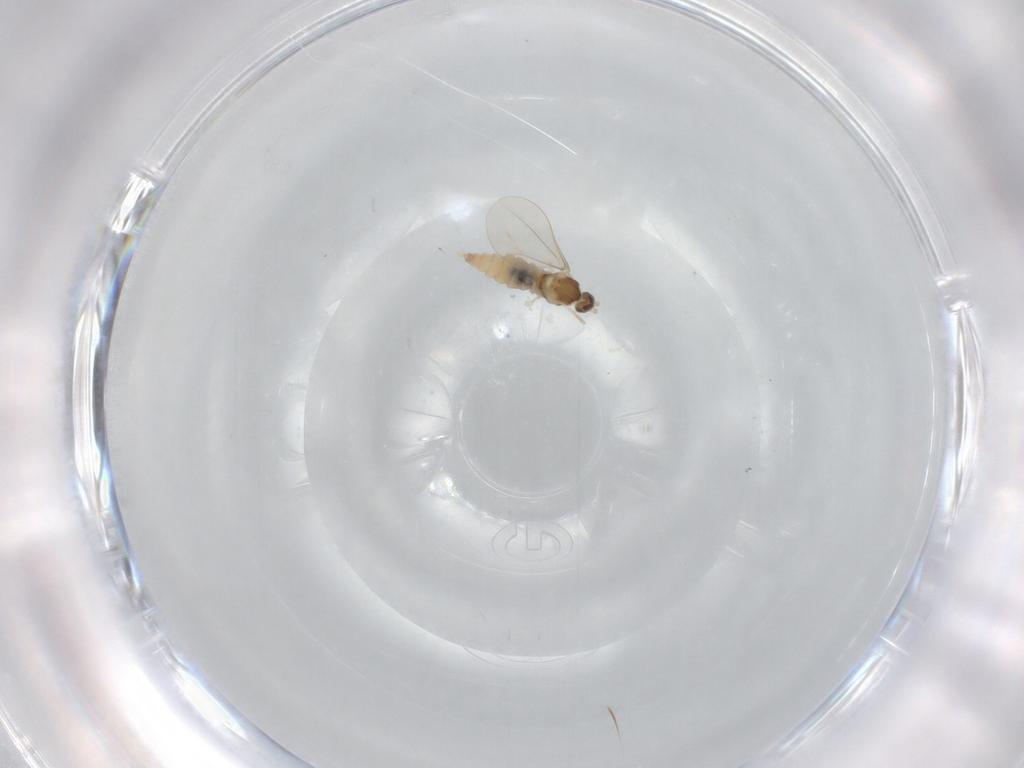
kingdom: Animalia
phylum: Arthropoda
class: Insecta
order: Diptera
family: Cecidomyiidae
